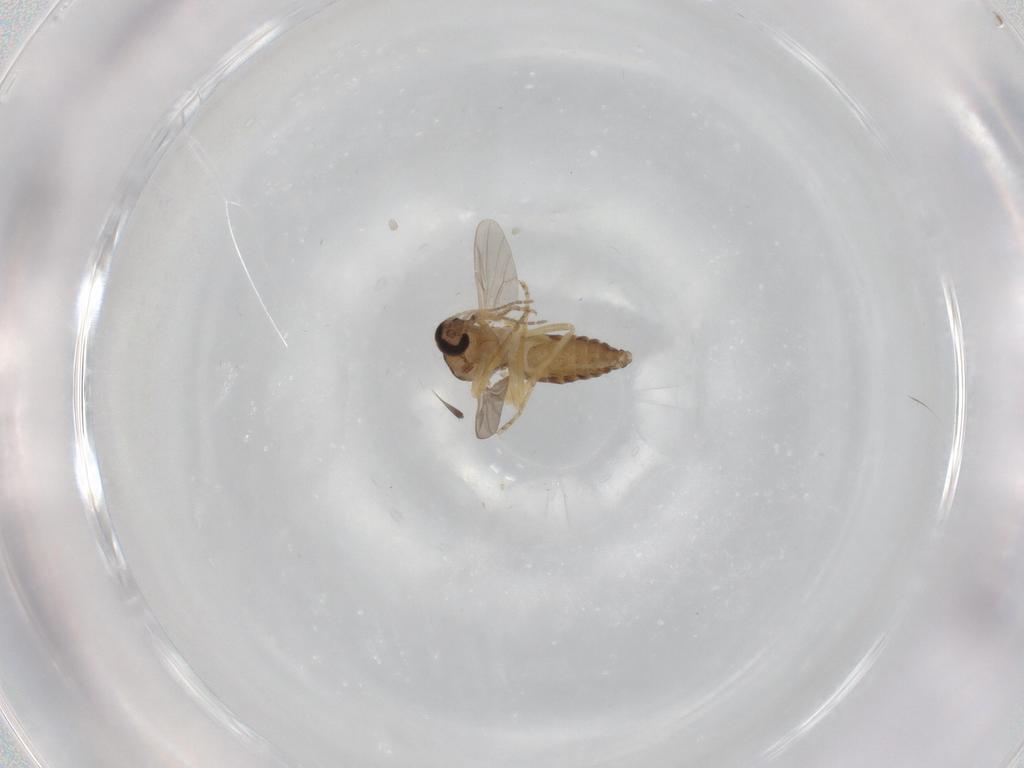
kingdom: Animalia
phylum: Arthropoda
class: Insecta
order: Diptera
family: Ceratopogonidae
